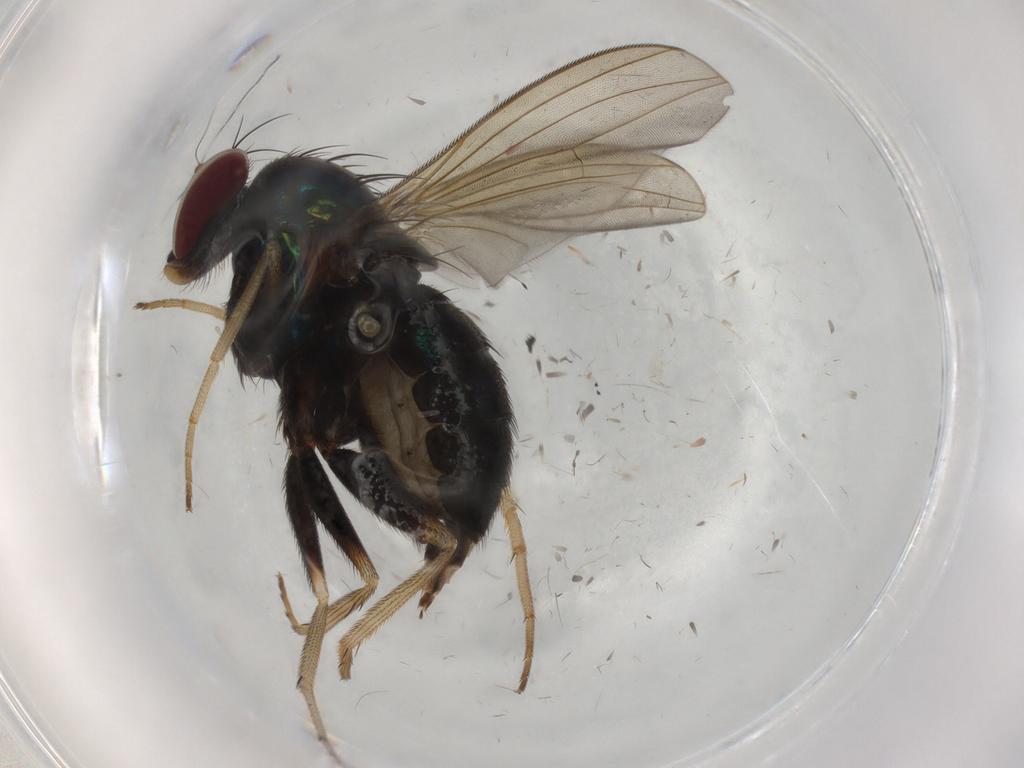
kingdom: Animalia
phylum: Arthropoda
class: Insecta
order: Diptera
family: Dolichopodidae
